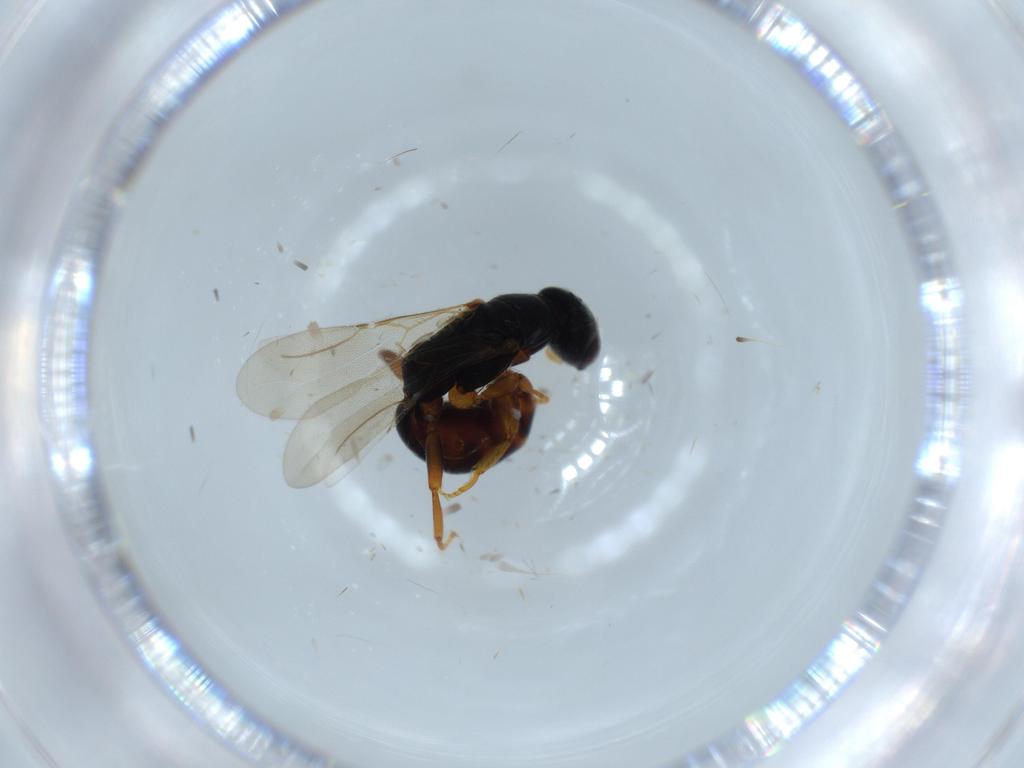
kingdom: Animalia
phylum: Arthropoda
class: Insecta
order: Hymenoptera
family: Bethylidae
